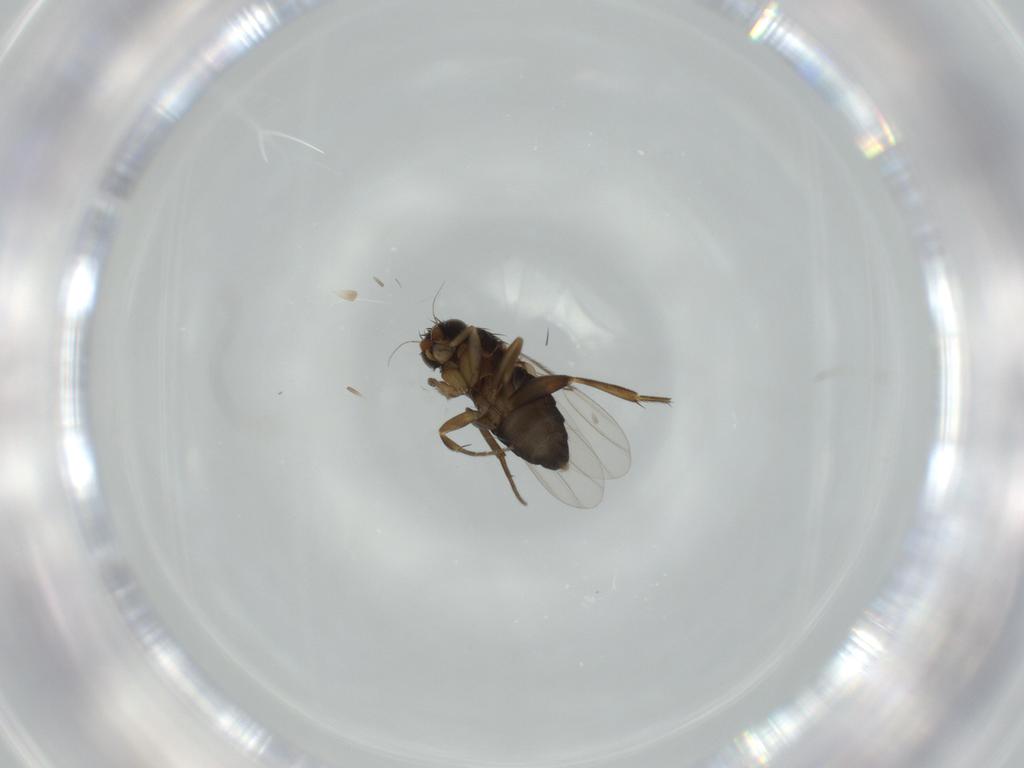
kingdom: Animalia
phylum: Arthropoda
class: Insecta
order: Diptera
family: Phoridae
